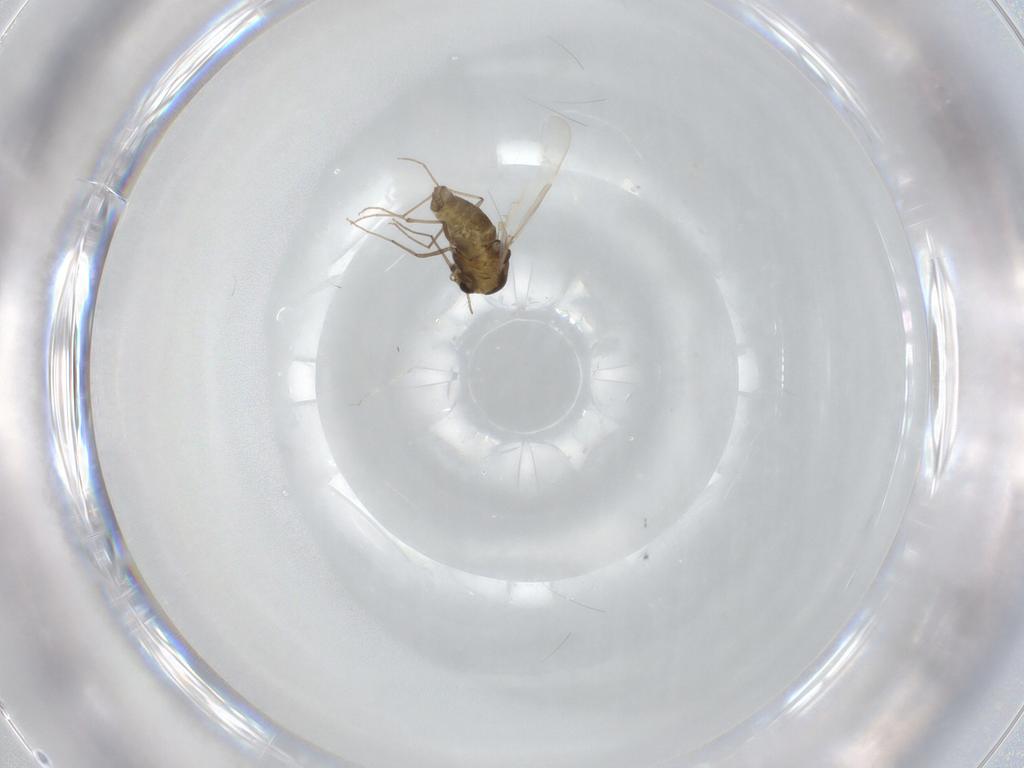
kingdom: Animalia
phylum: Arthropoda
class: Insecta
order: Diptera
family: Chironomidae
